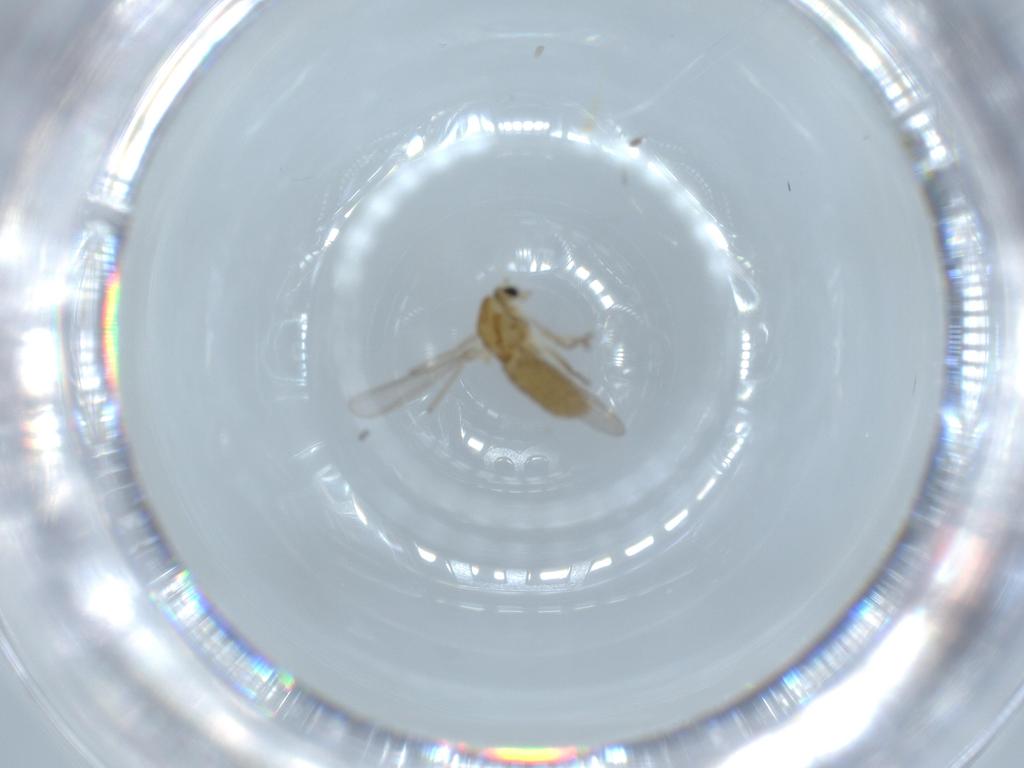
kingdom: Animalia
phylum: Arthropoda
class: Insecta
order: Diptera
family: Chironomidae
